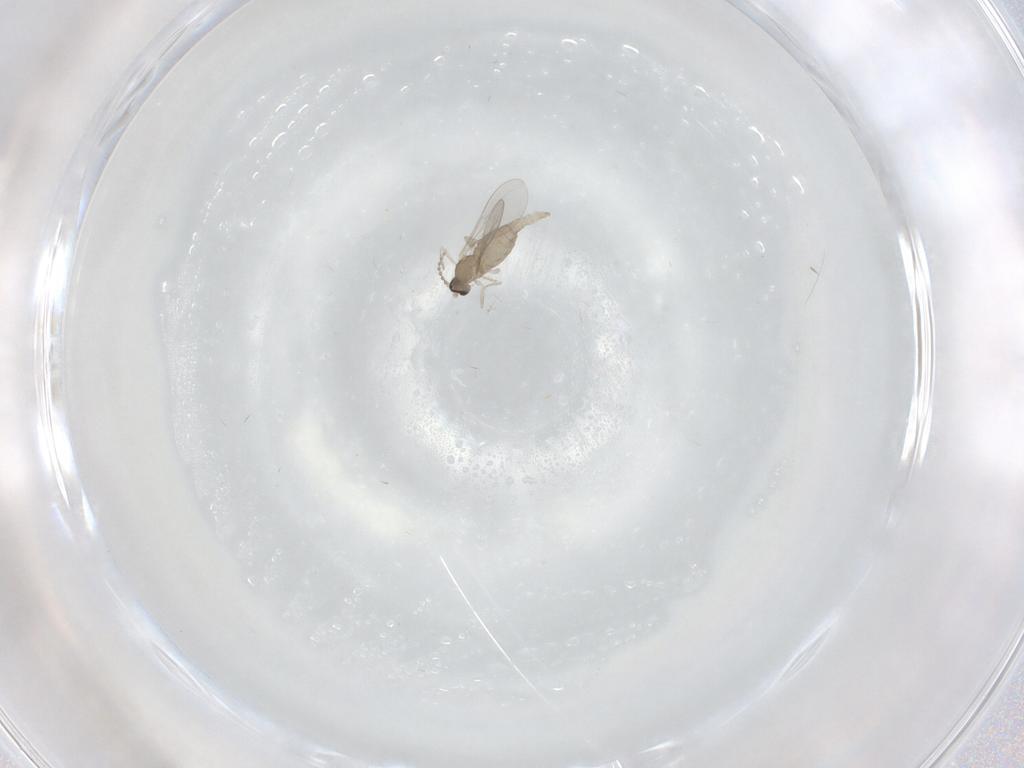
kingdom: Animalia
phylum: Arthropoda
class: Insecta
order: Diptera
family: Cecidomyiidae
